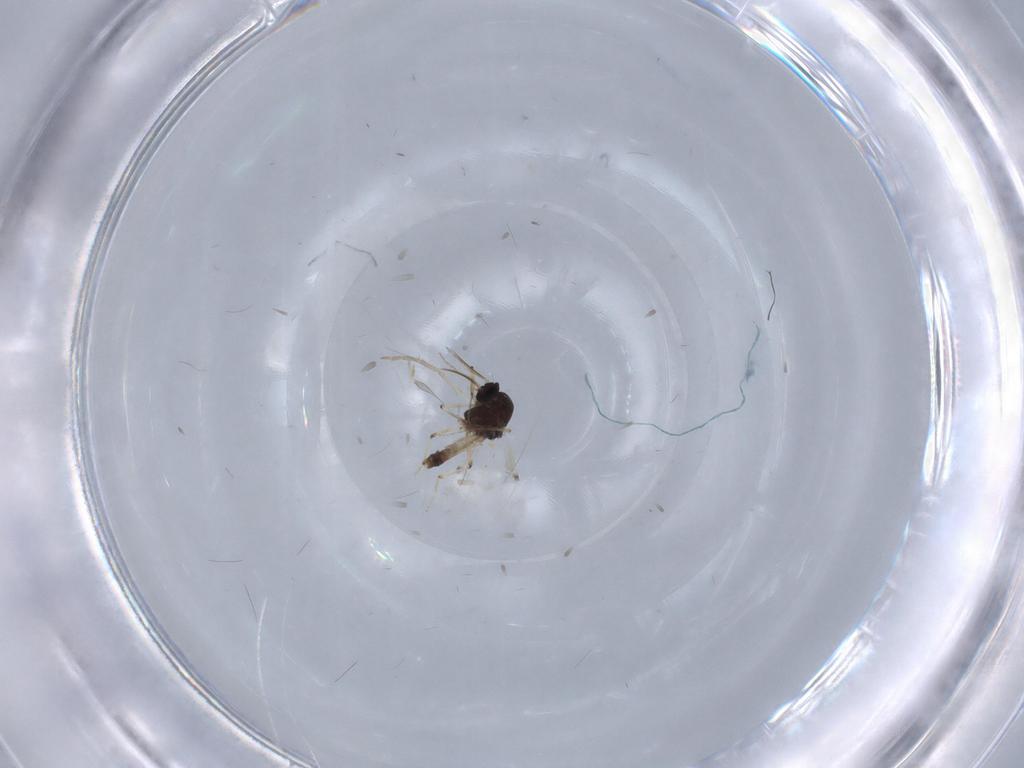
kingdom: Animalia
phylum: Arthropoda
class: Insecta
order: Diptera
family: Chironomidae
